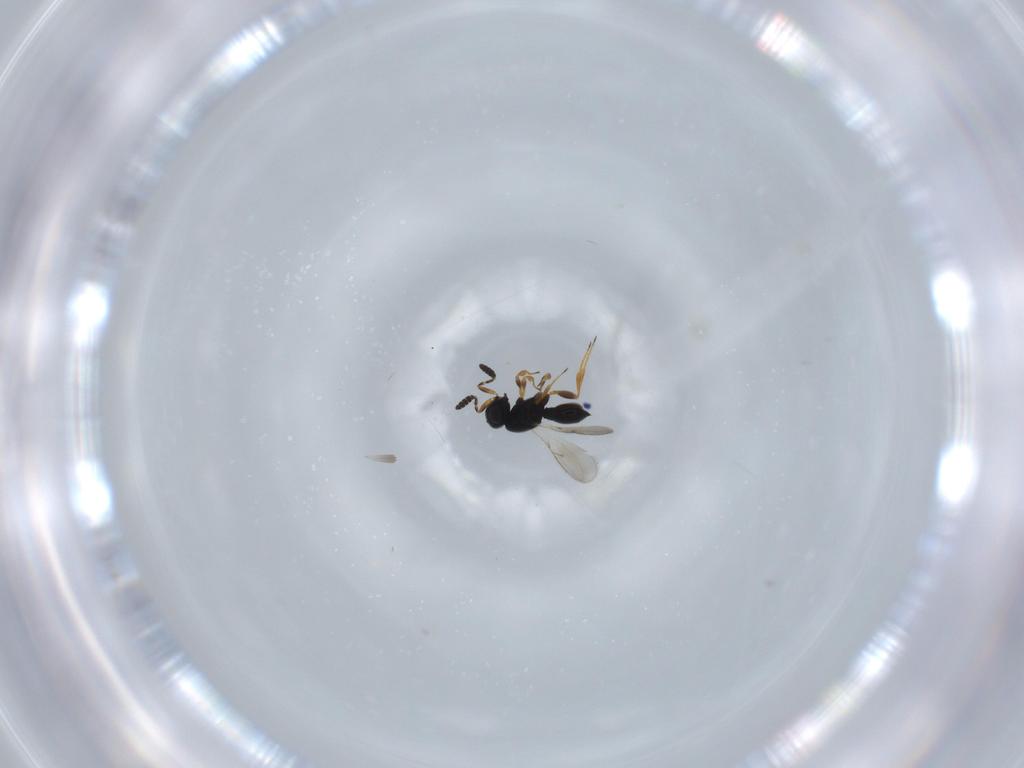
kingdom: Animalia
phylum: Arthropoda
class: Insecta
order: Hymenoptera
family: Scelionidae
